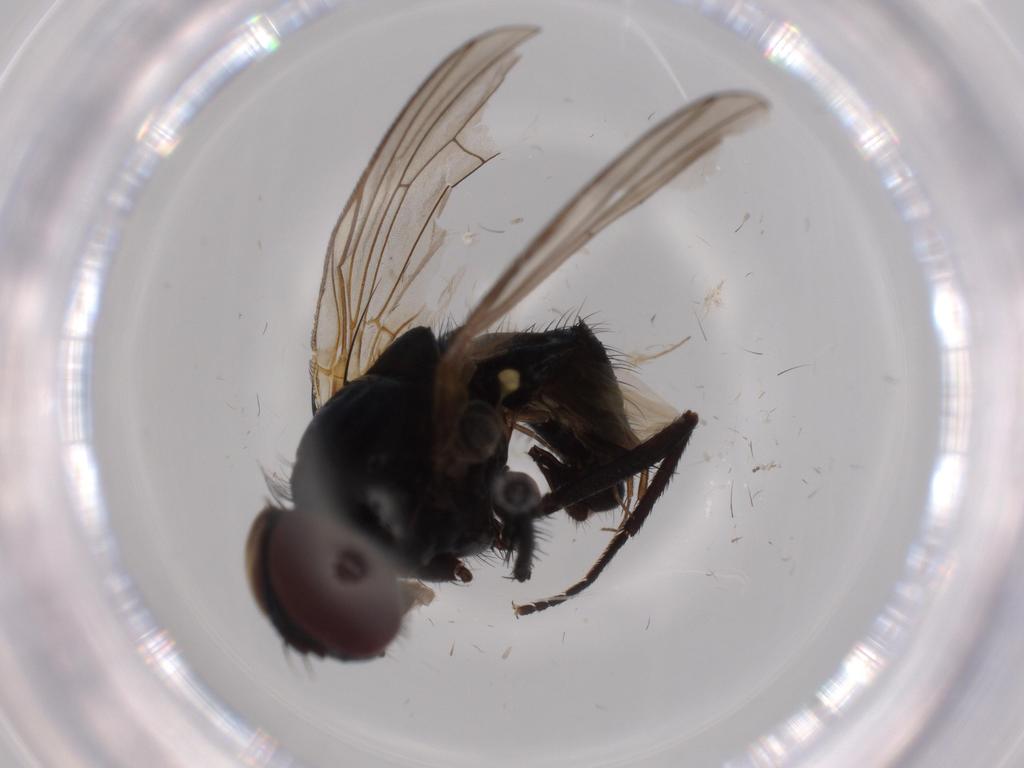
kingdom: Animalia
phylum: Arthropoda
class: Insecta
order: Diptera
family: Fannia
